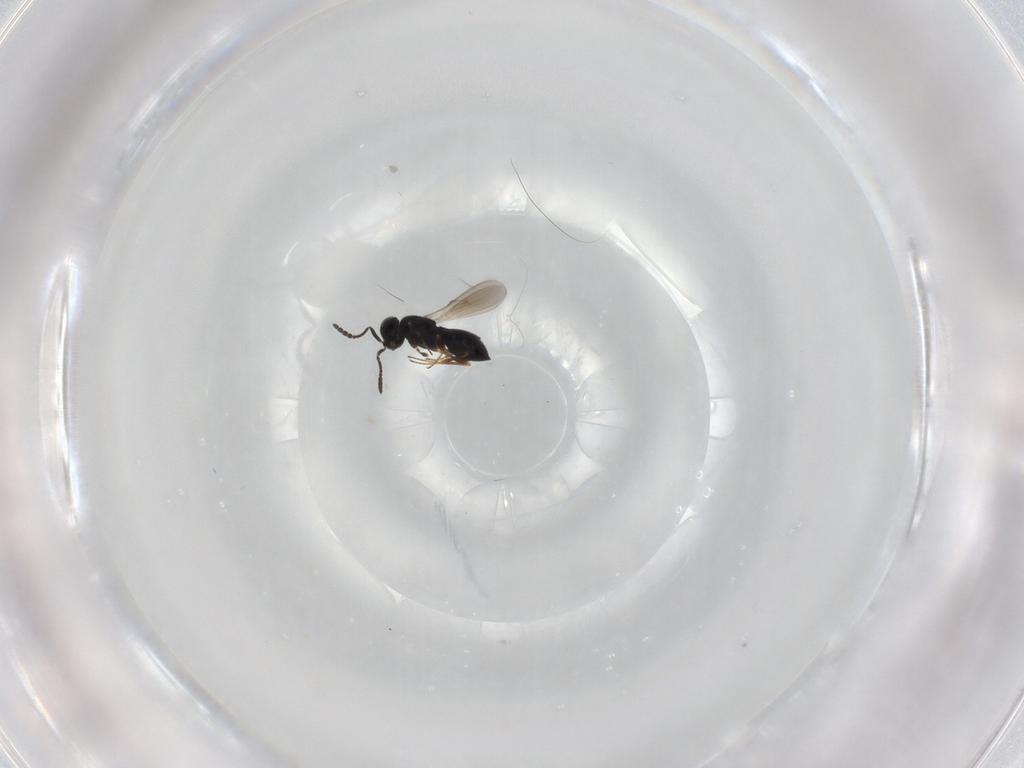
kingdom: Animalia
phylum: Arthropoda
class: Insecta
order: Hymenoptera
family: Scelionidae
